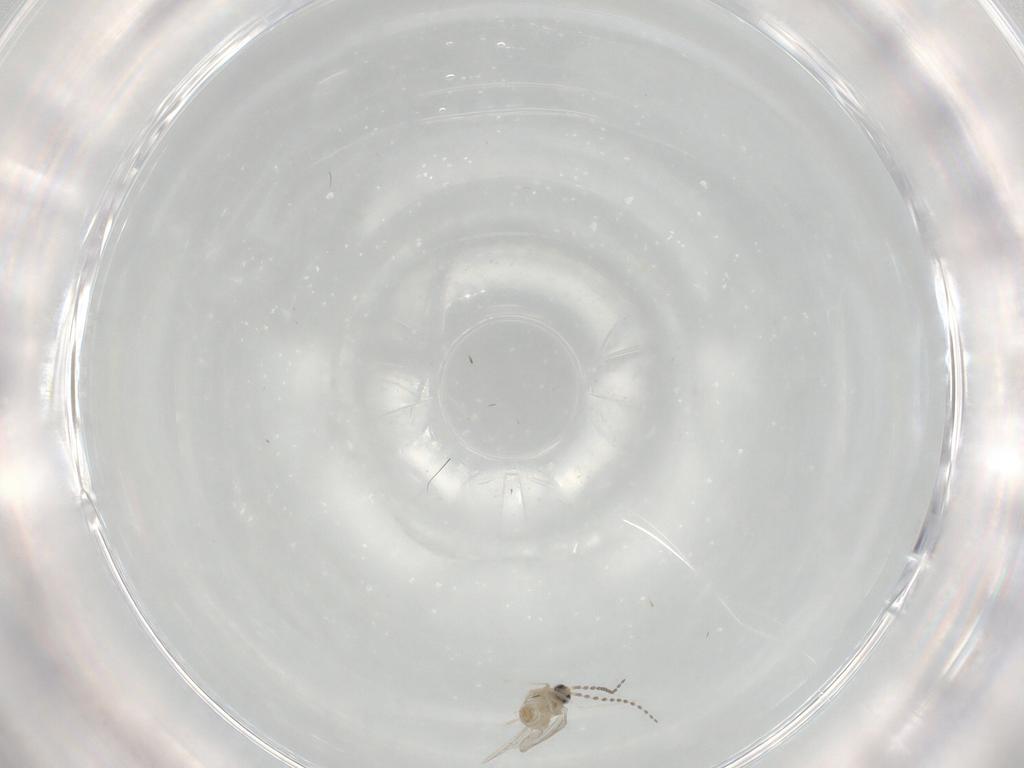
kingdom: Animalia
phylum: Arthropoda
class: Insecta
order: Diptera
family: Cecidomyiidae
